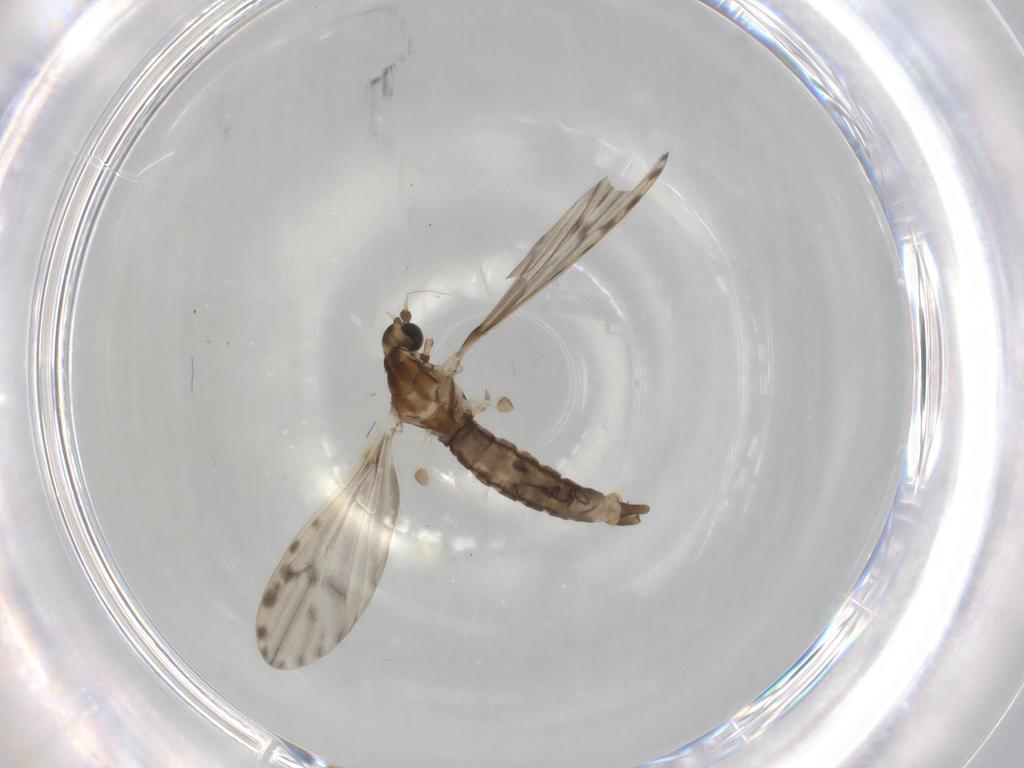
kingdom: Animalia
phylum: Arthropoda
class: Insecta
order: Diptera
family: Limoniidae
